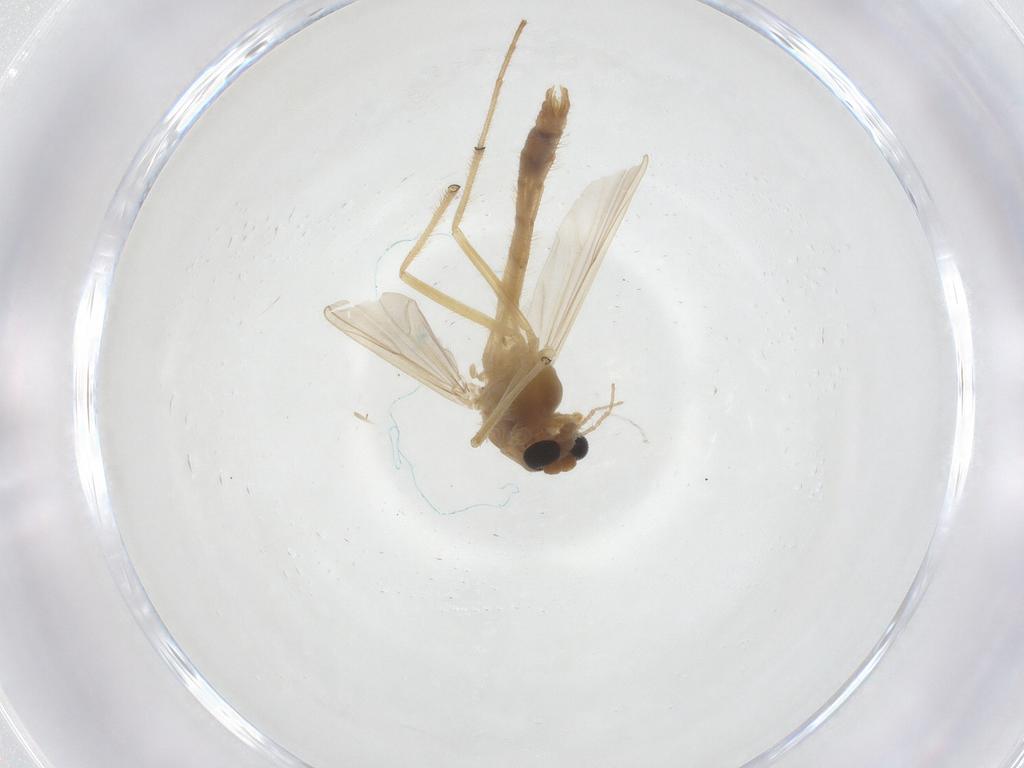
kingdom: Animalia
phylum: Arthropoda
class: Insecta
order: Diptera
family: Chironomidae
